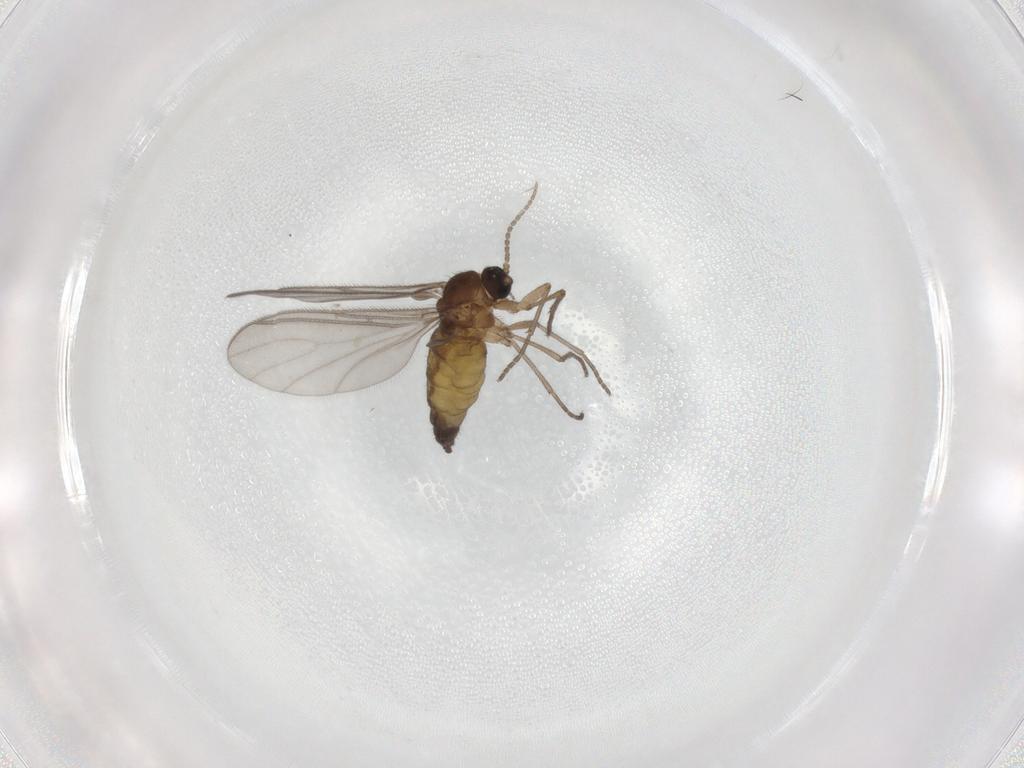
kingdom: Animalia
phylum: Arthropoda
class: Insecta
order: Diptera
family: Sciaridae
